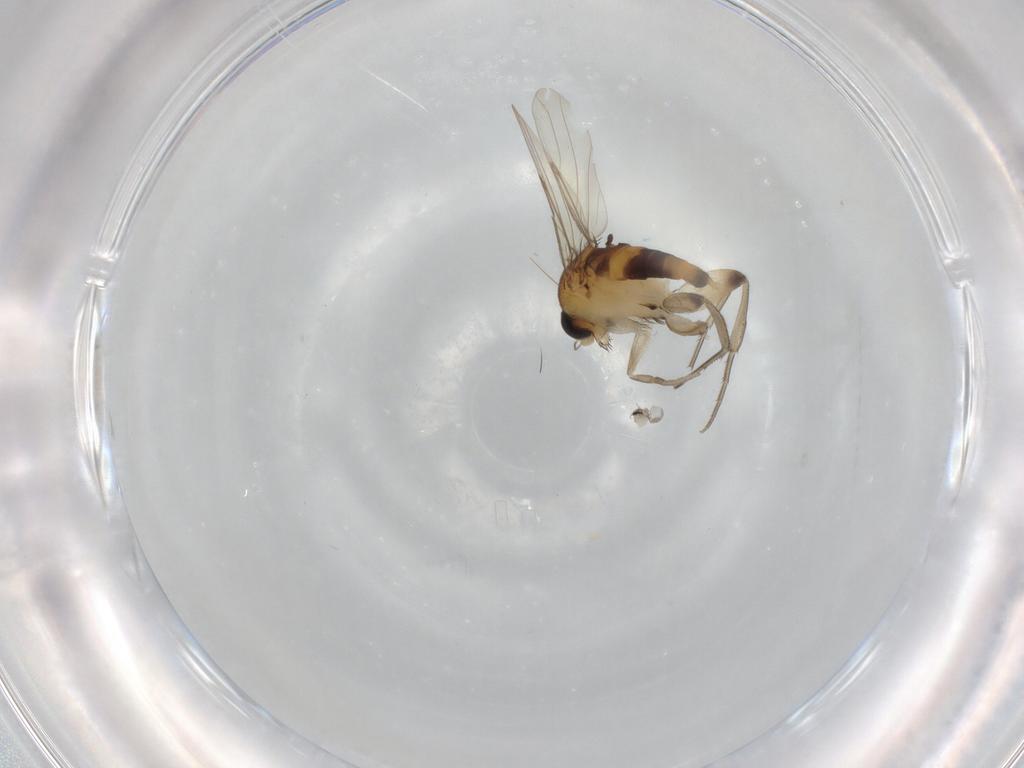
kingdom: Animalia
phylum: Arthropoda
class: Insecta
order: Diptera
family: Phoridae
